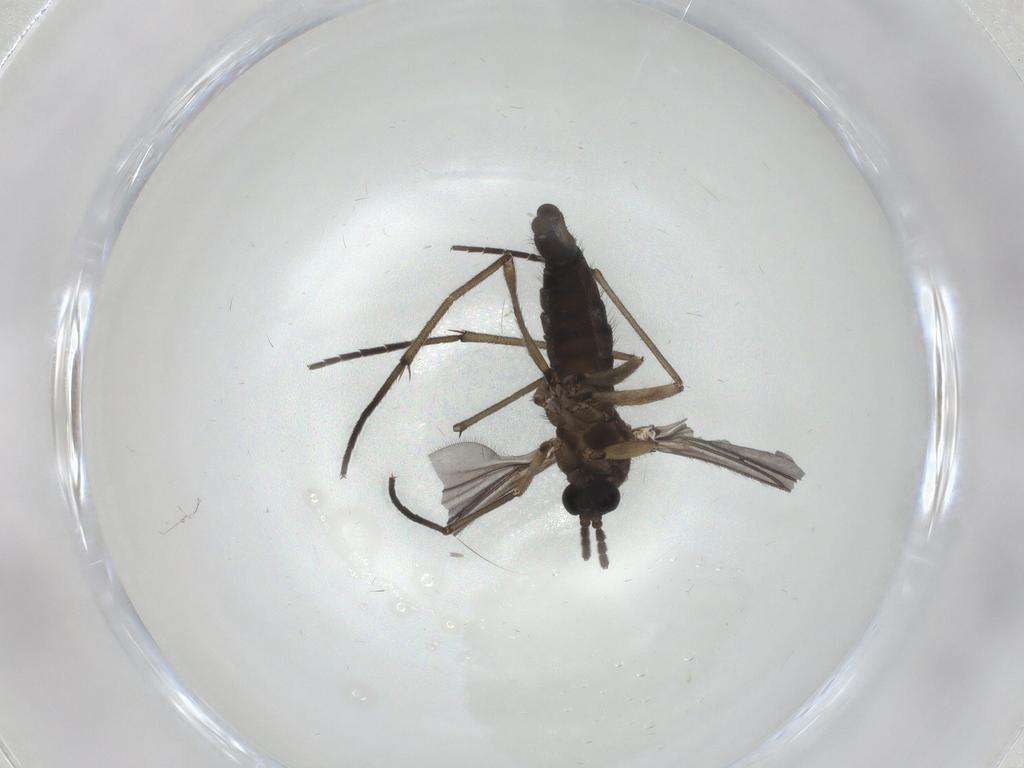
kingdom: Animalia
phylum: Arthropoda
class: Insecta
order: Diptera
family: Sciaridae
